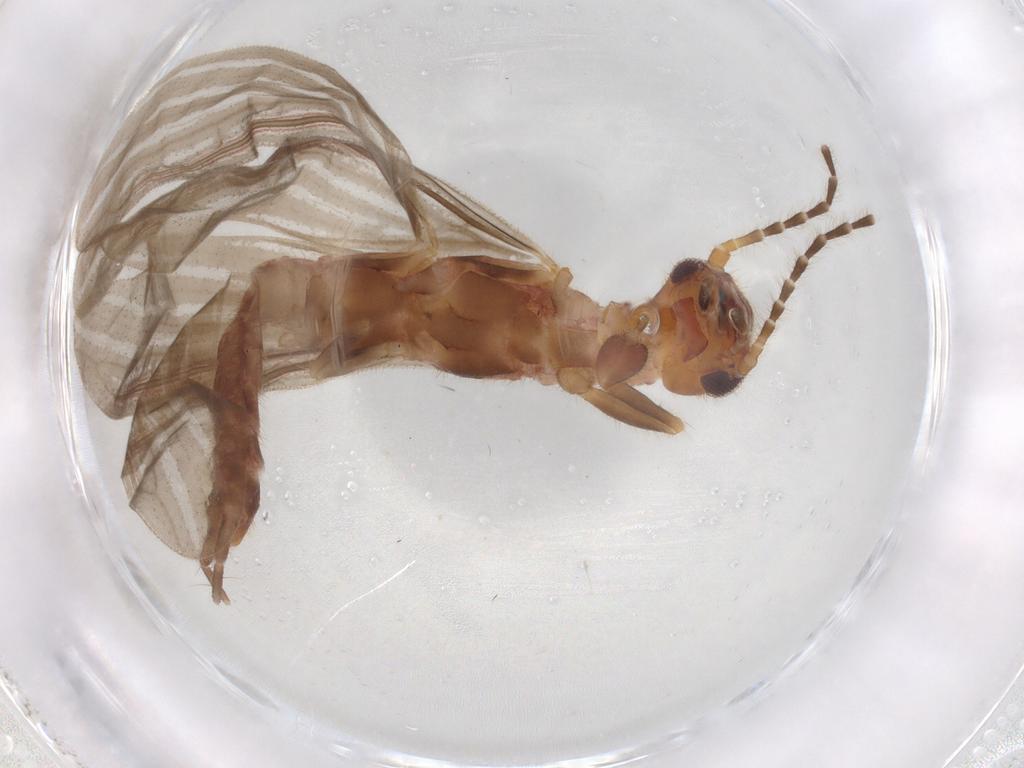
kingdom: Animalia
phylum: Arthropoda
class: Insecta
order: Embioptera
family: Oligotomidae
